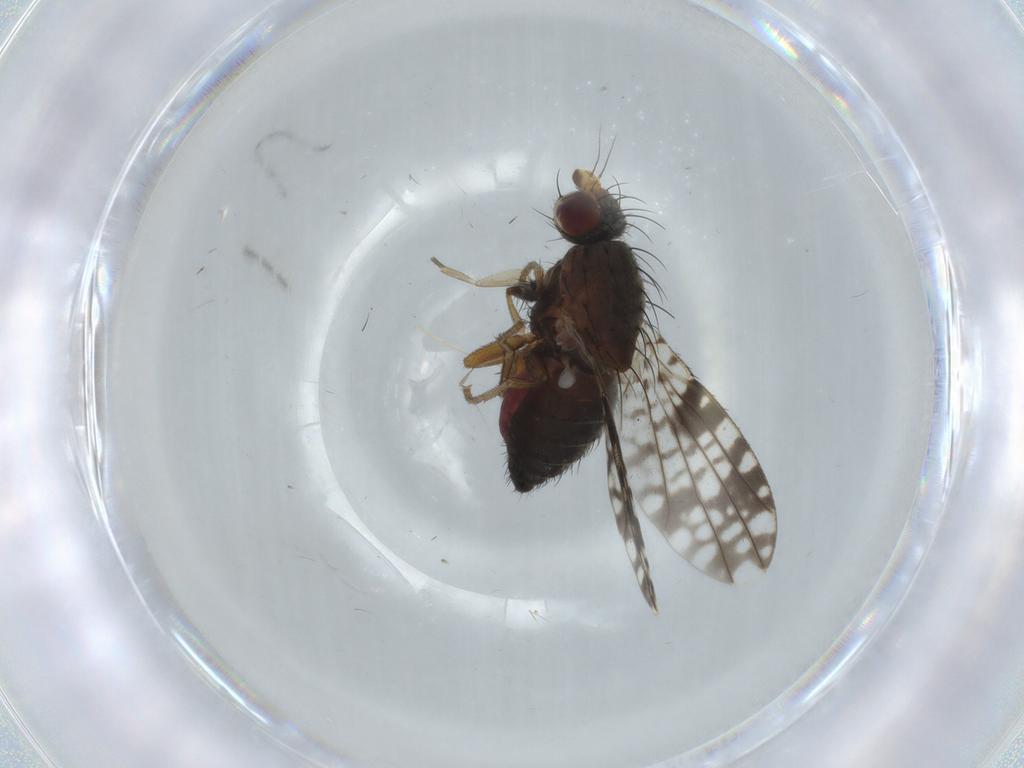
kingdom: Animalia
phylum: Arthropoda
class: Insecta
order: Diptera
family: Tephritidae
